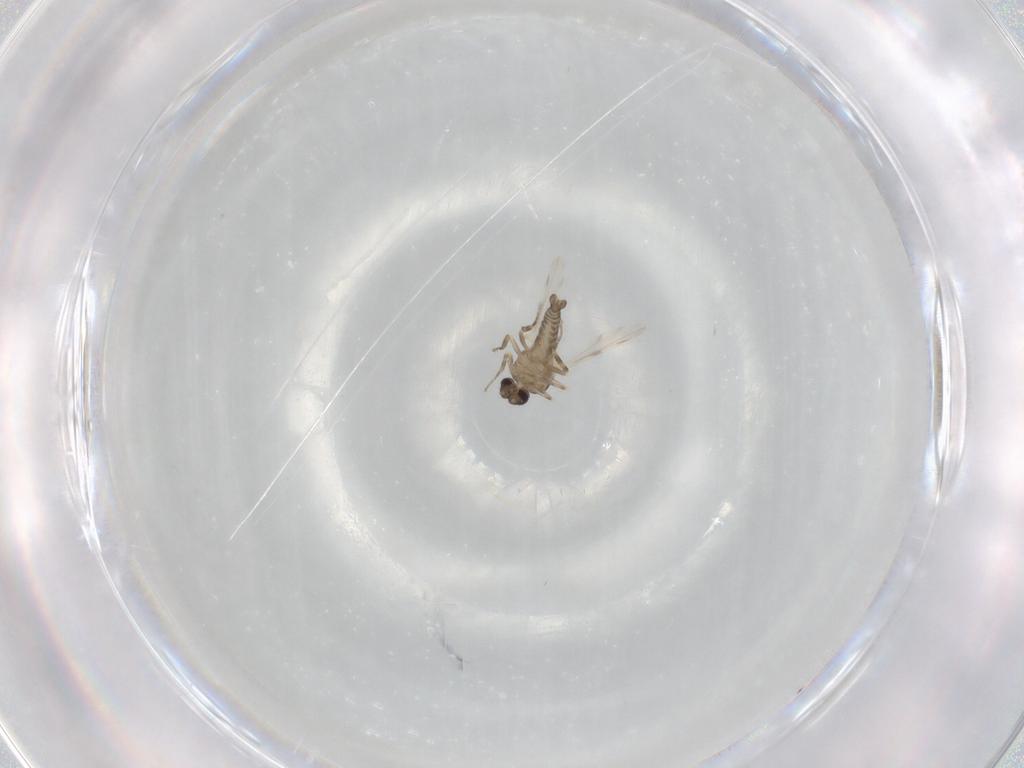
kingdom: Animalia
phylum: Arthropoda
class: Insecta
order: Diptera
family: Ceratopogonidae
